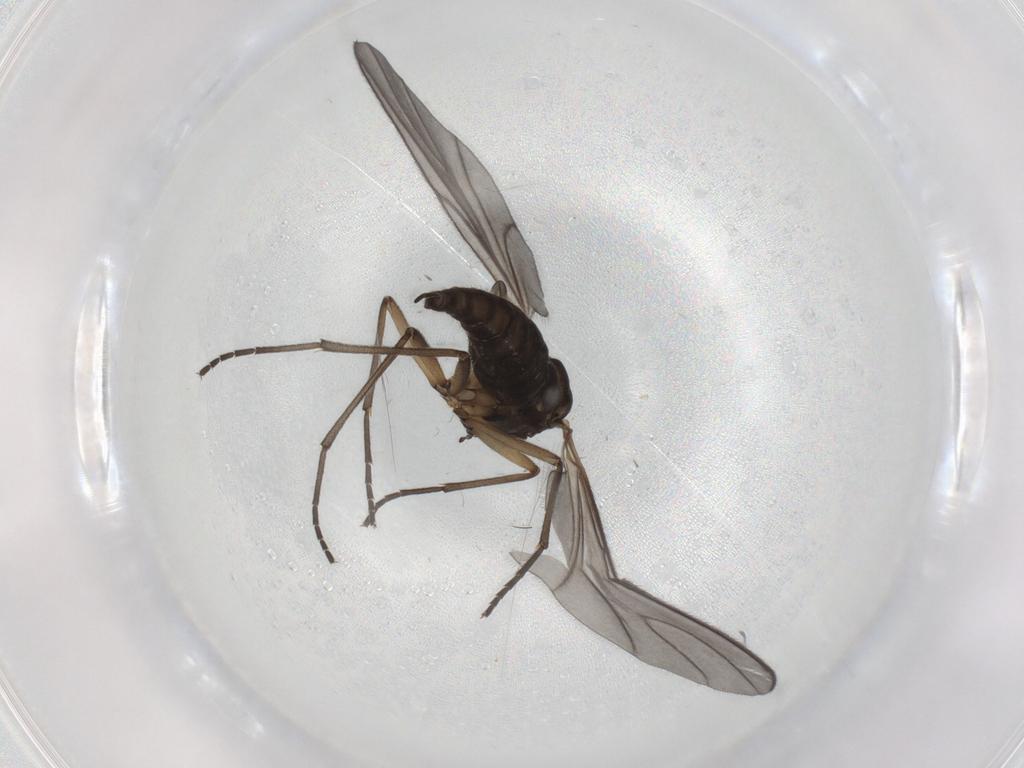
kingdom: Animalia
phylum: Arthropoda
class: Insecta
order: Diptera
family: Sciaridae
